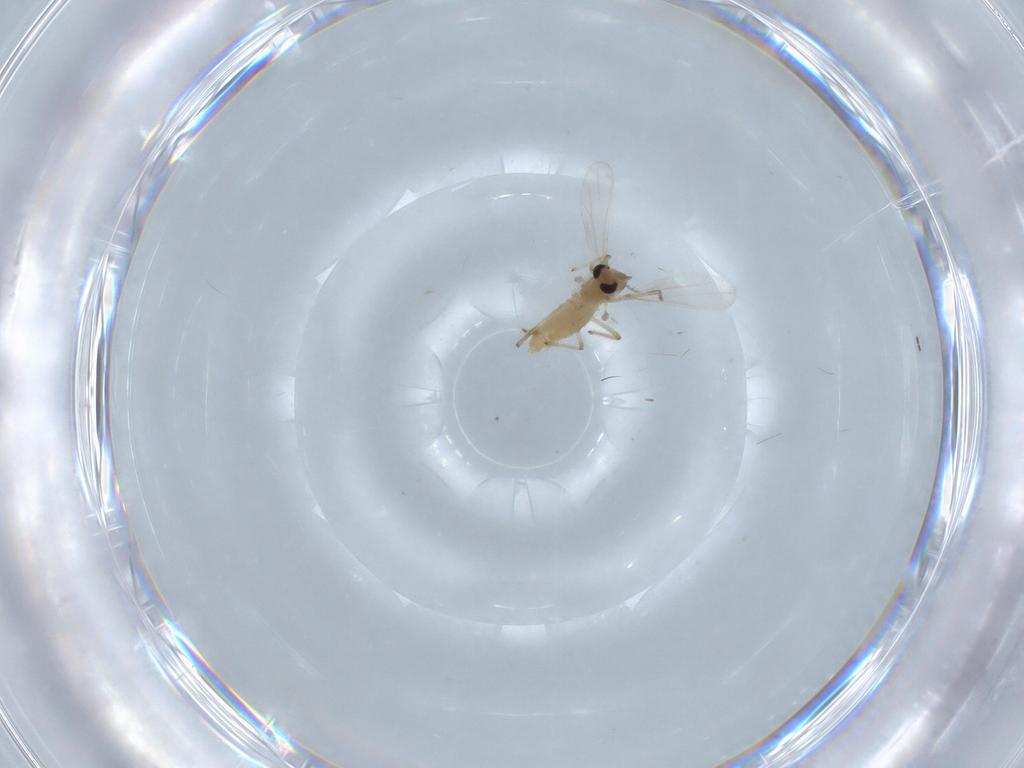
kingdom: Animalia
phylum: Arthropoda
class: Insecta
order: Diptera
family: Chironomidae
